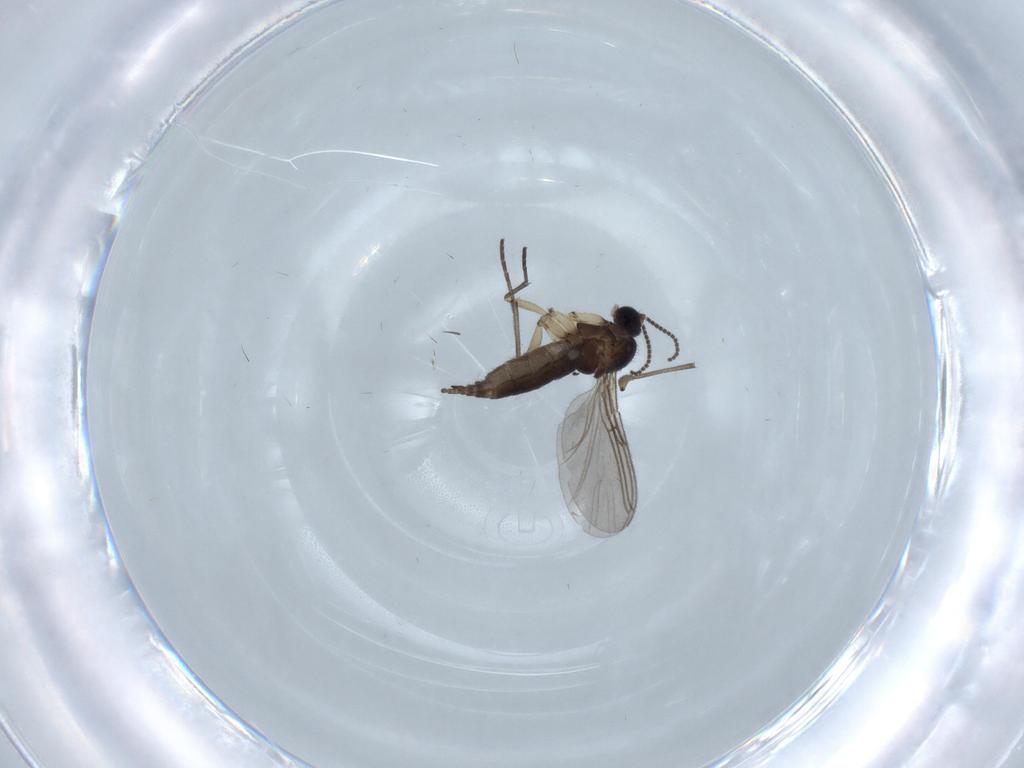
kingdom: Animalia
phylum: Arthropoda
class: Insecta
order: Diptera
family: Sciaridae
